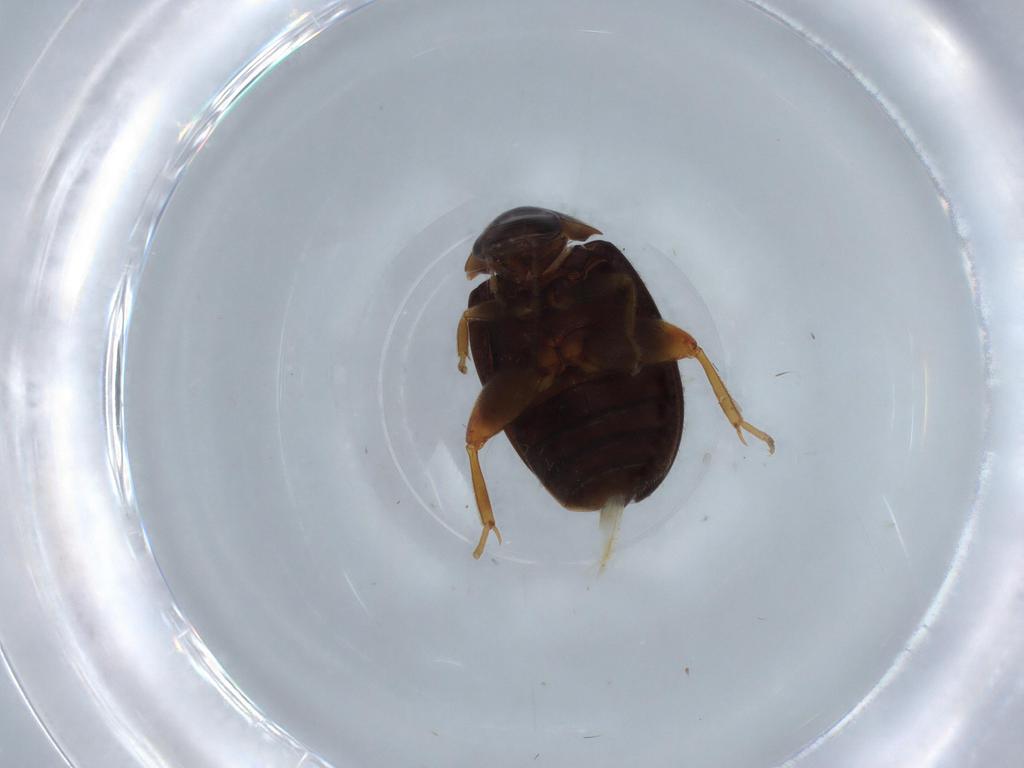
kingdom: Animalia
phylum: Arthropoda
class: Insecta
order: Coleoptera
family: Scirtidae
